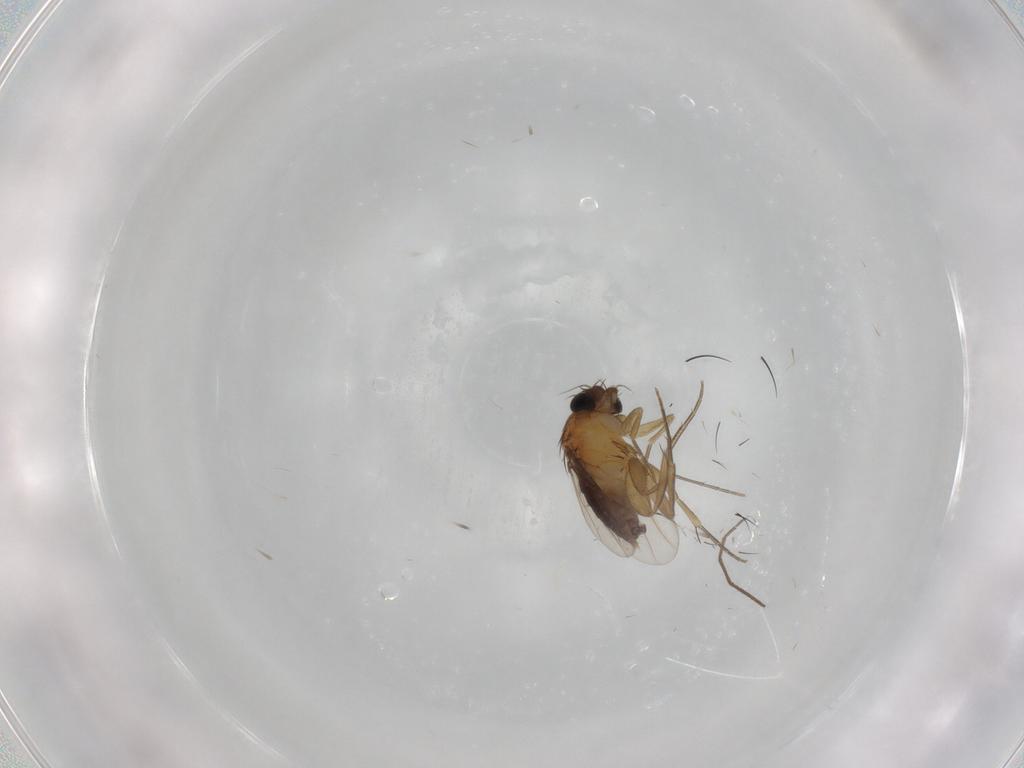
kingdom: Animalia
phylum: Arthropoda
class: Insecta
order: Diptera
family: Phoridae
